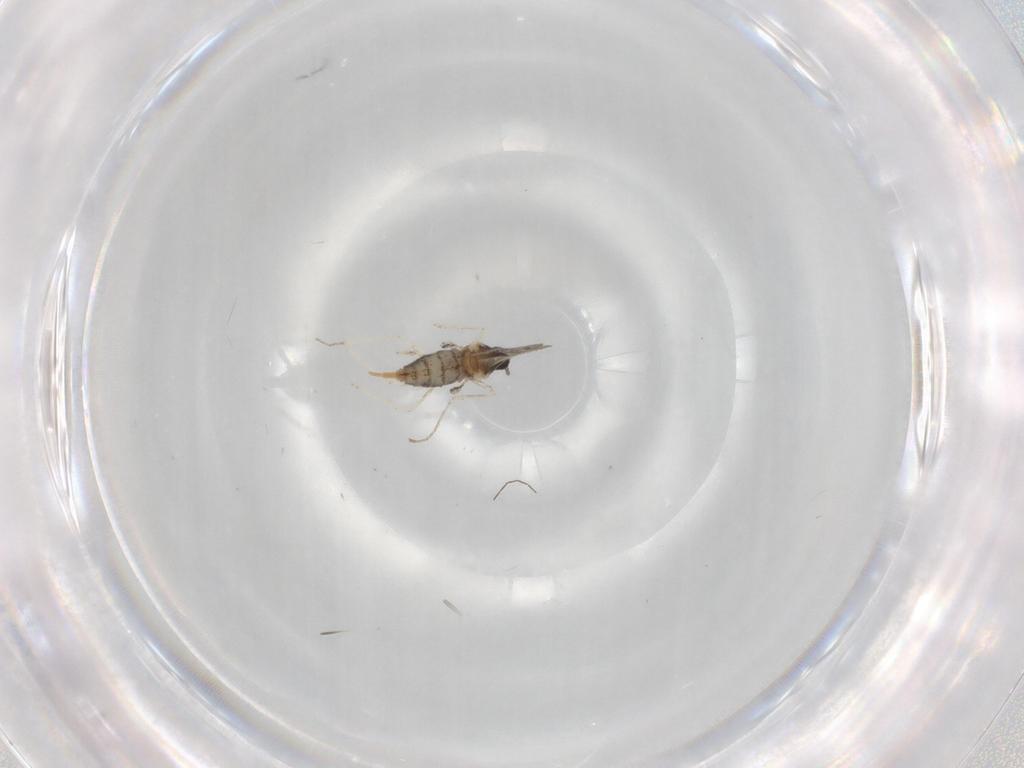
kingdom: Animalia
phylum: Arthropoda
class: Insecta
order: Diptera
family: Cecidomyiidae
